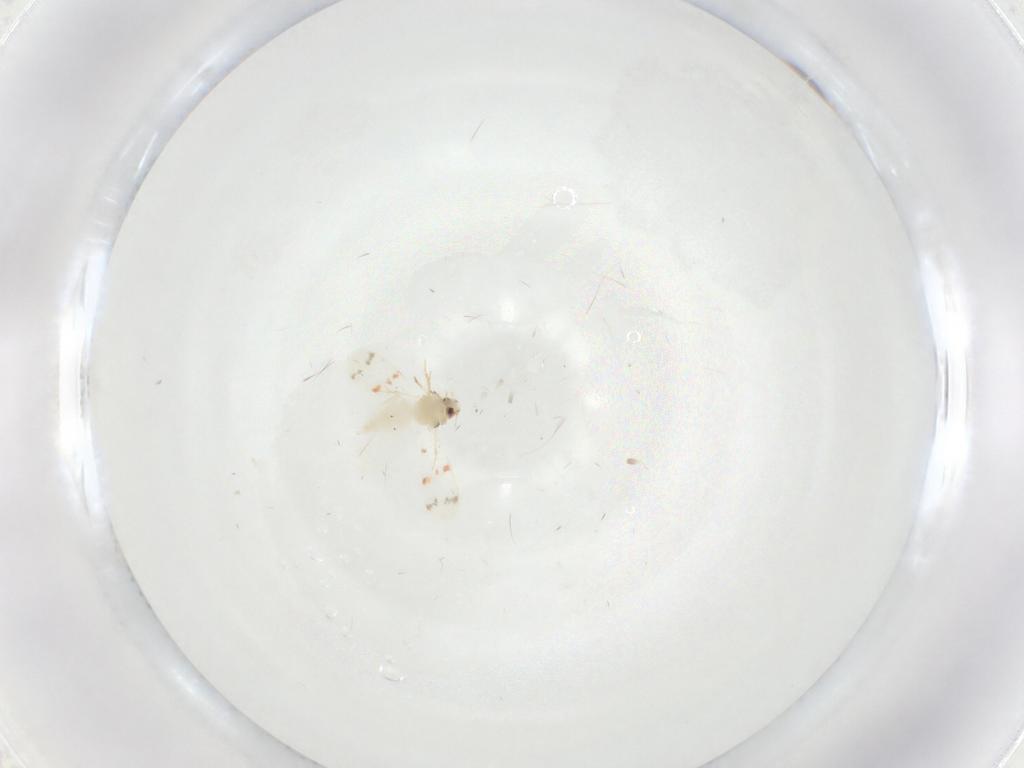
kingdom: Animalia
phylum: Arthropoda
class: Insecta
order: Hemiptera
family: Aleyrodidae
